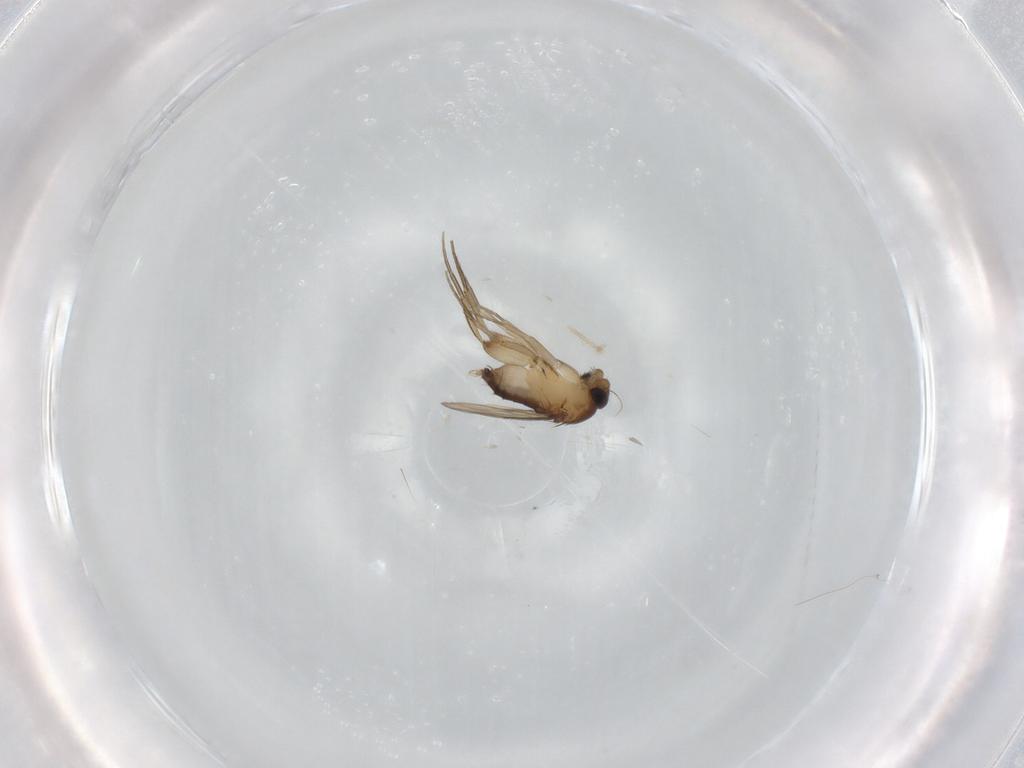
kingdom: Animalia
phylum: Arthropoda
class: Insecta
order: Diptera
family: Phoridae
